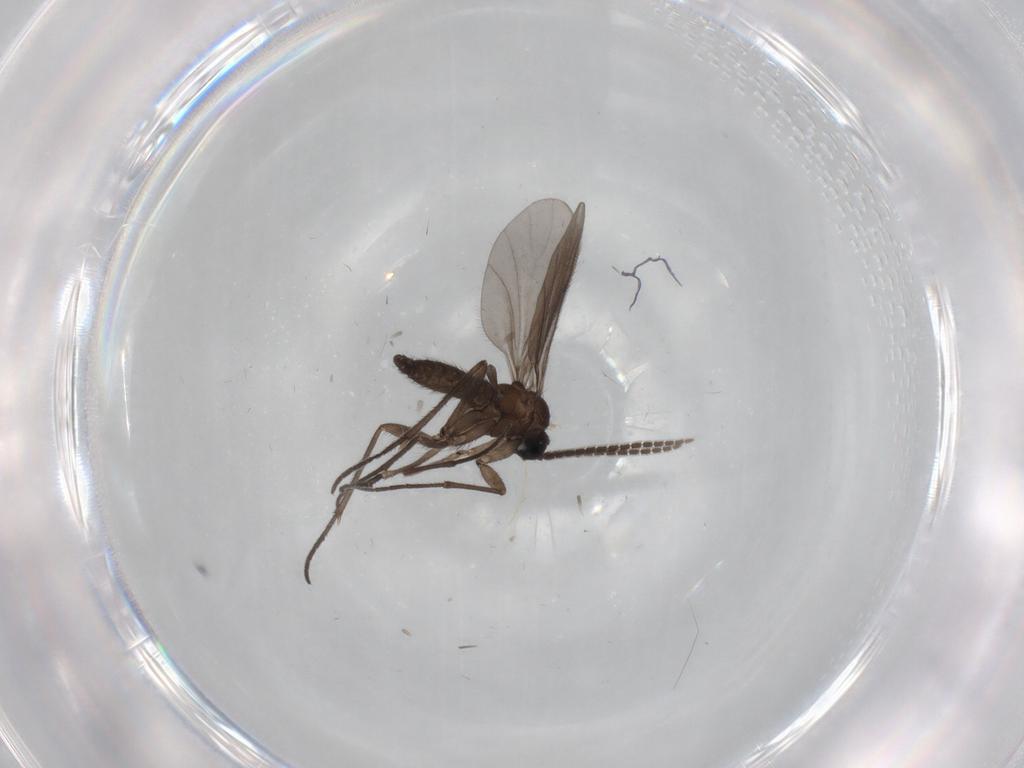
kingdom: Animalia
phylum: Arthropoda
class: Insecta
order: Diptera
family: Sciaridae
